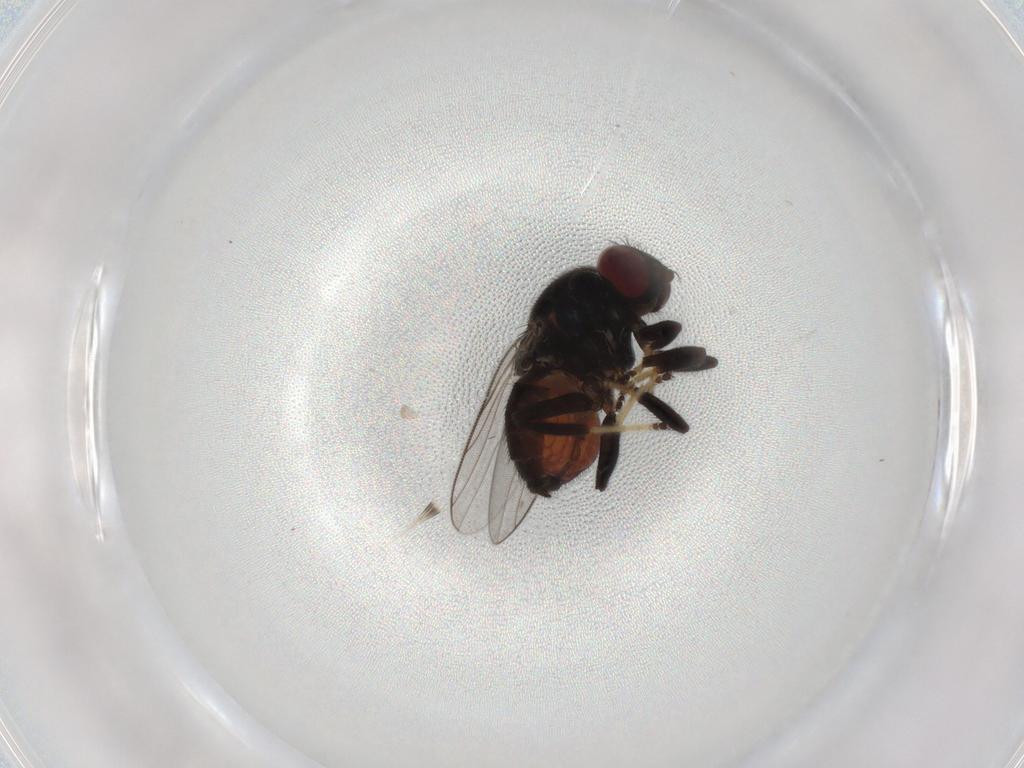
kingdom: Animalia
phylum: Arthropoda
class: Insecta
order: Diptera
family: Chloropidae
